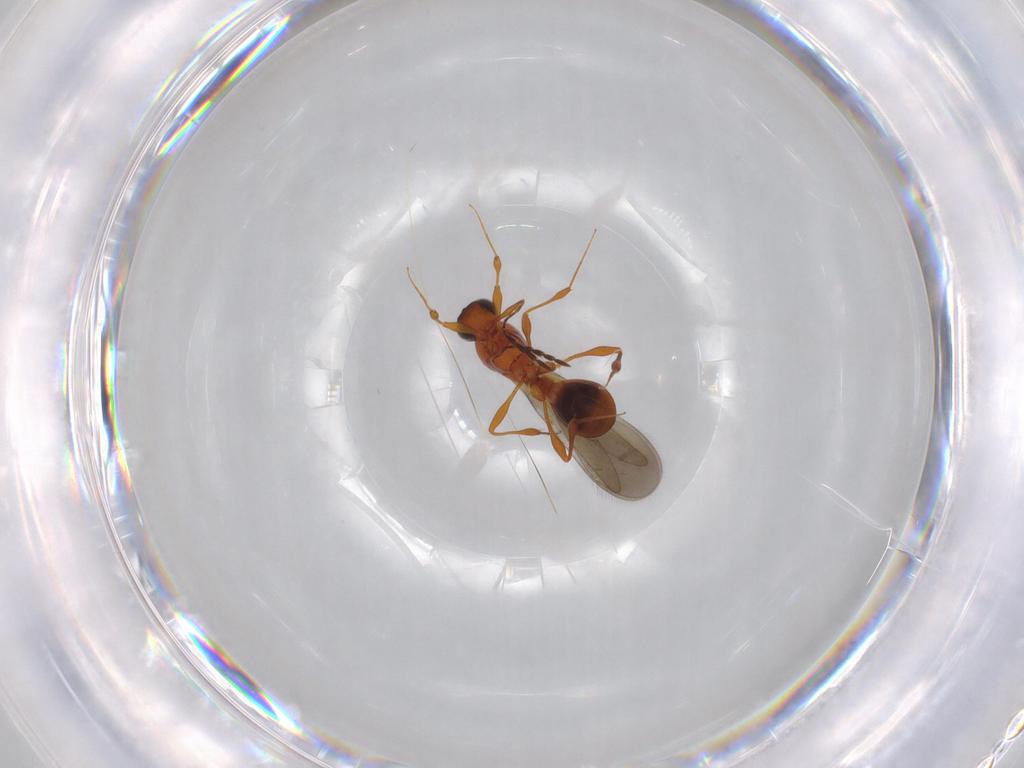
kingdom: Animalia
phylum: Arthropoda
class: Insecta
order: Hymenoptera
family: Platygastridae
